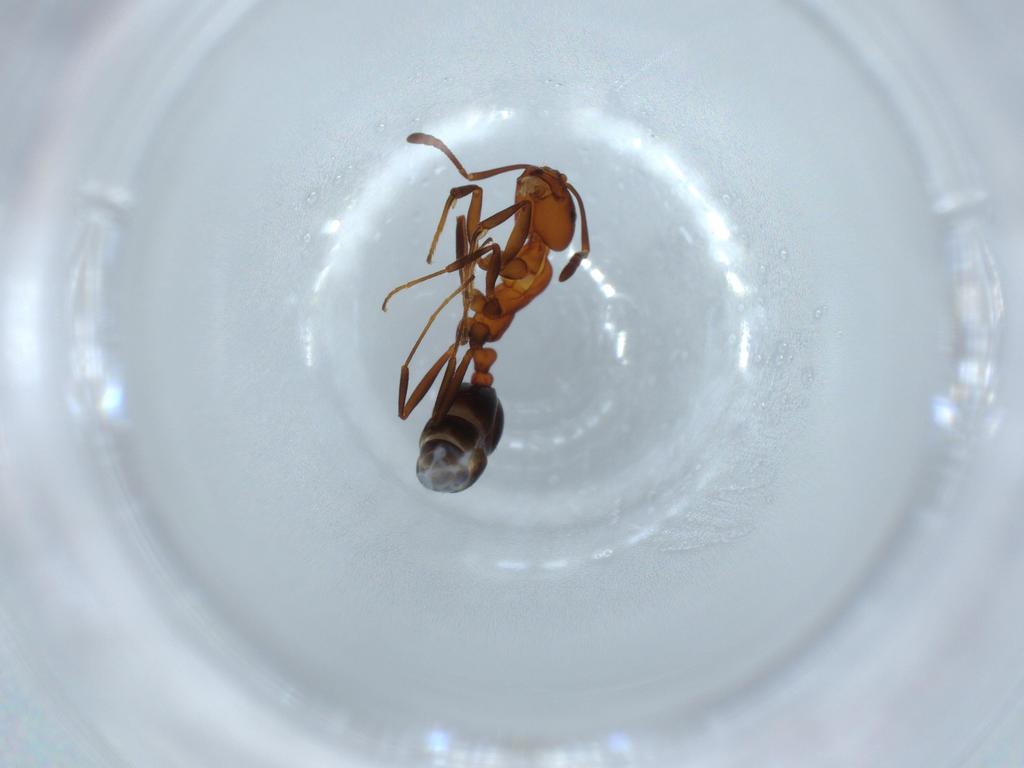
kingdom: Animalia
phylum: Arthropoda
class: Insecta
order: Hymenoptera
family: Formicidae
